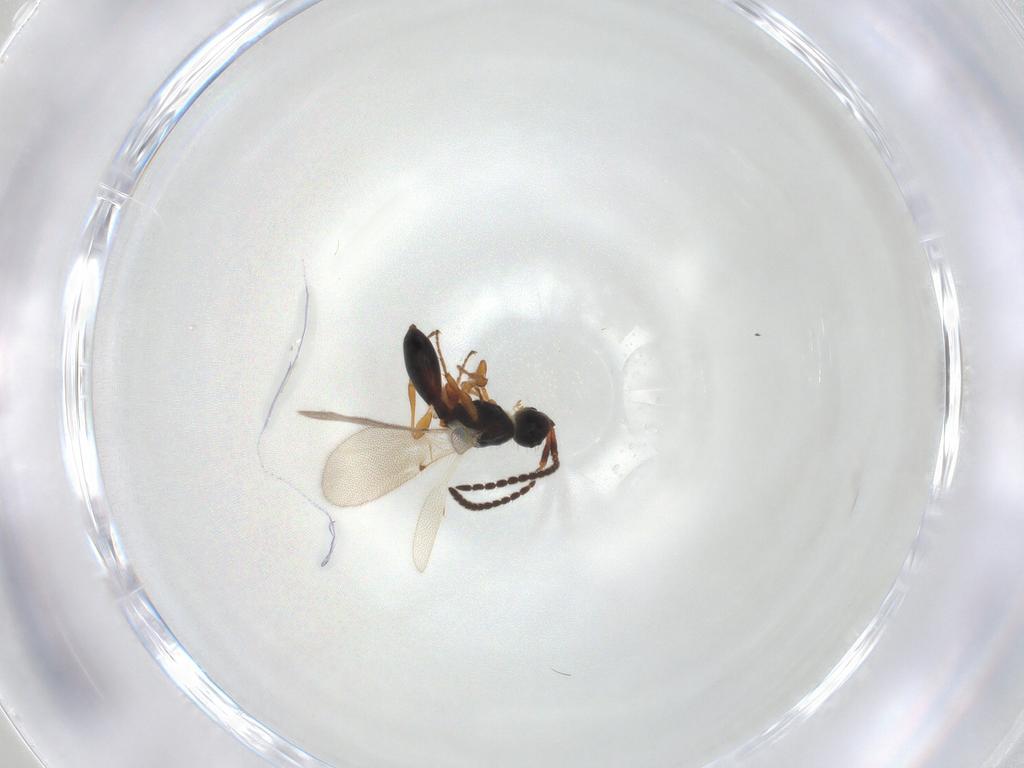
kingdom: Animalia
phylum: Arthropoda
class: Insecta
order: Hymenoptera
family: Diapriidae
